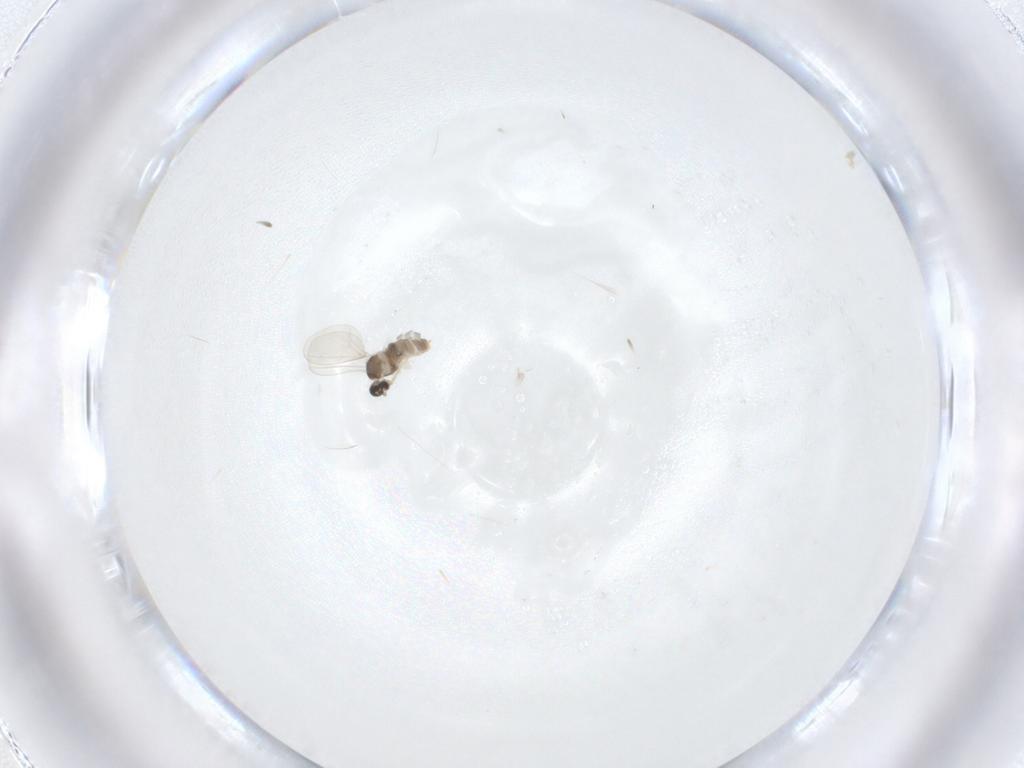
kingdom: Animalia
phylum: Arthropoda
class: Insecta
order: Diptera
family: Cecidomyiidae
